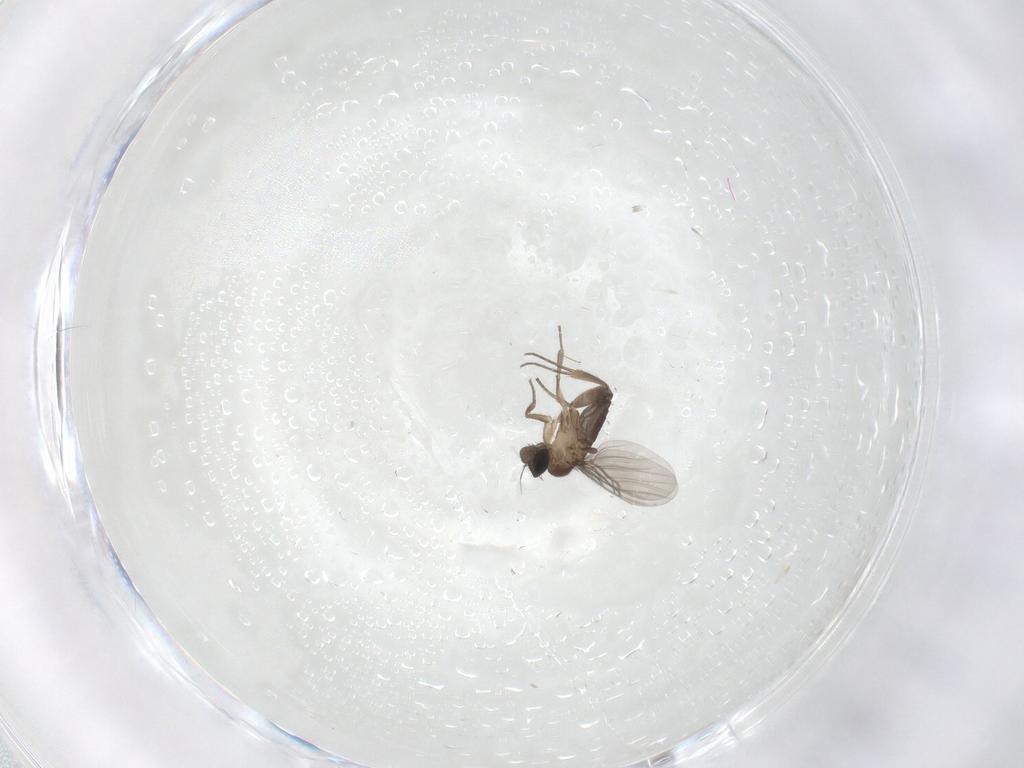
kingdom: Animalia
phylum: Arthropoda
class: Insecta
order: Diptera
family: Phoridae
